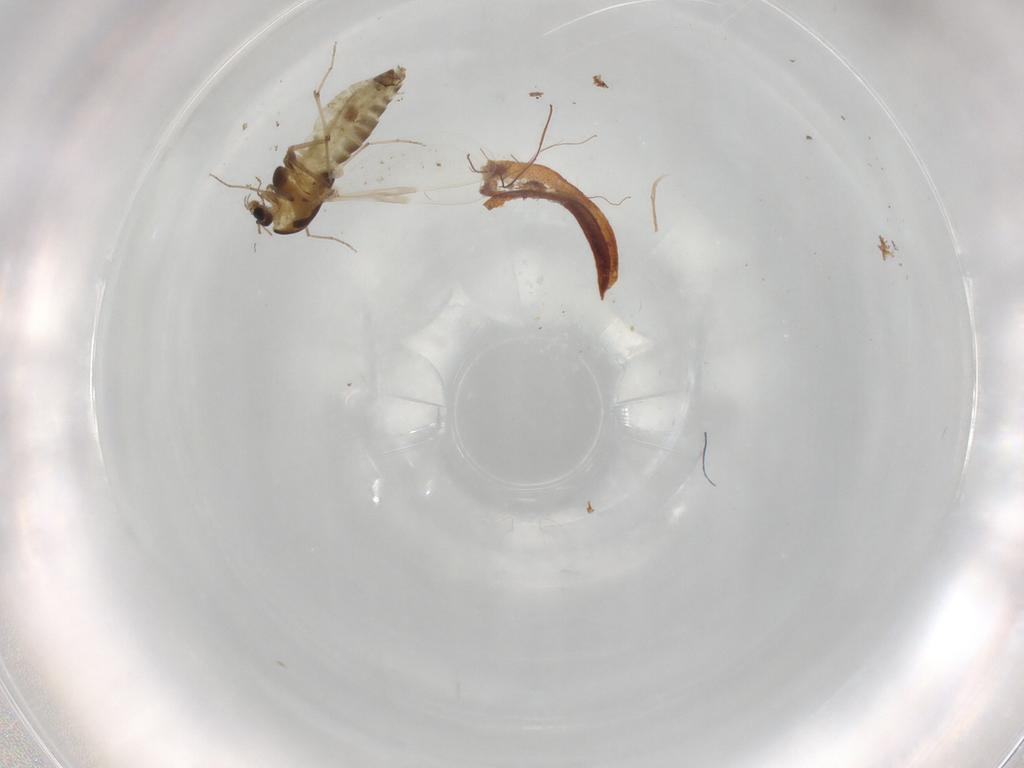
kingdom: Animalia
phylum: Arthropoda
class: Insecta
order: Diptera
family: Chironomidae
